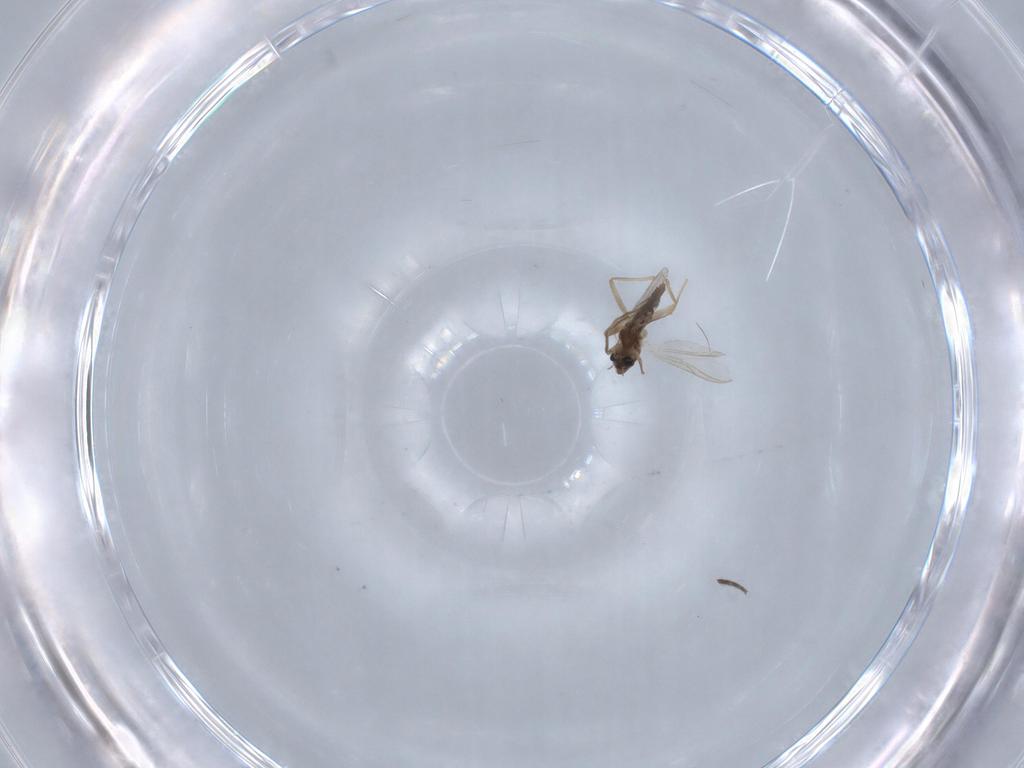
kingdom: Animalia
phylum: Arthropoda
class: Insecta
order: Diptera
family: Chironomidae
